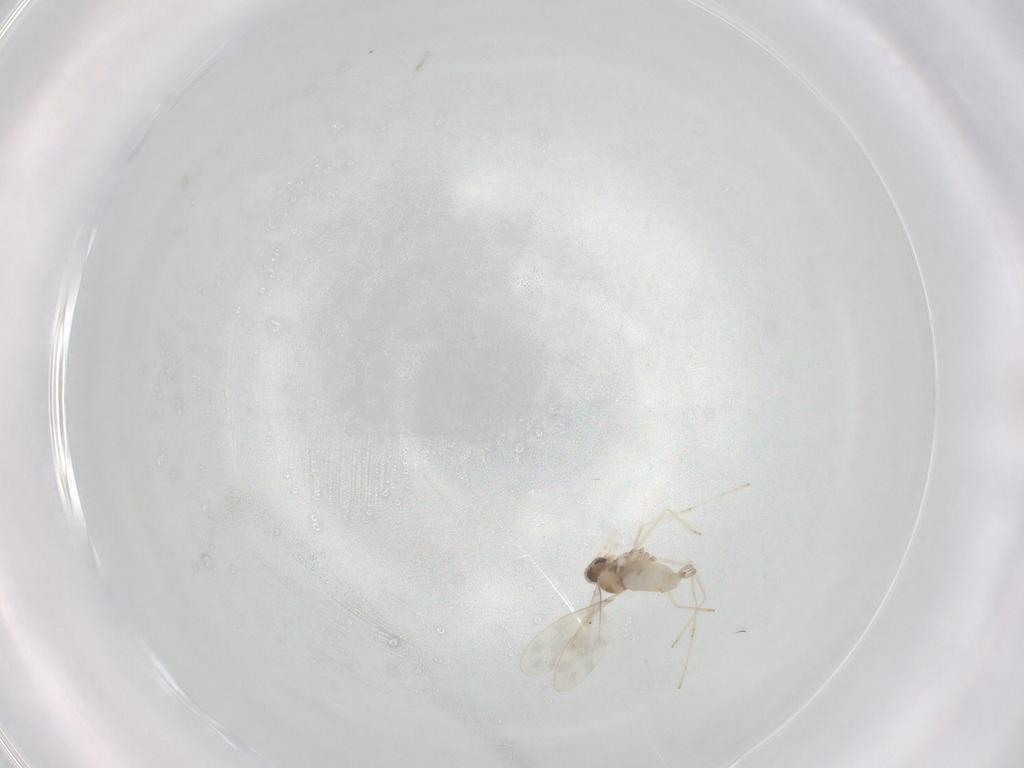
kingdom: Animalia
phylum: Arthropoda
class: Insecta
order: Diptera
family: Cecidomyiidae
